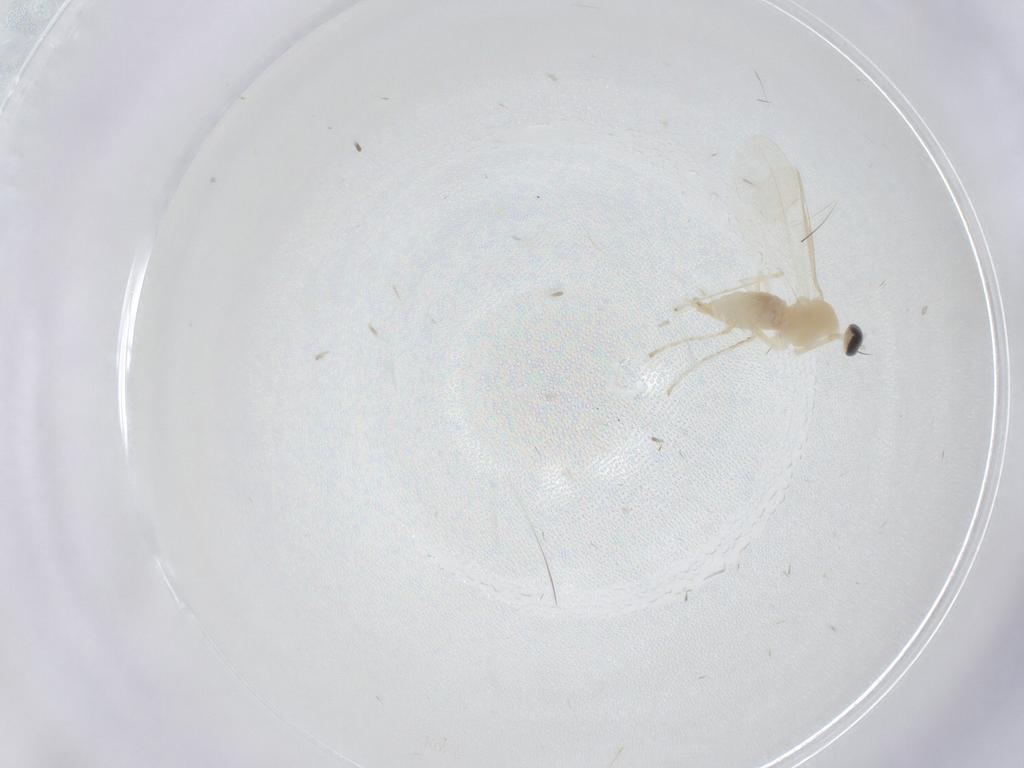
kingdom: Animalia
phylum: Arthropoda
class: Insecta
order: Diptera
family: Cecidomyiidae
